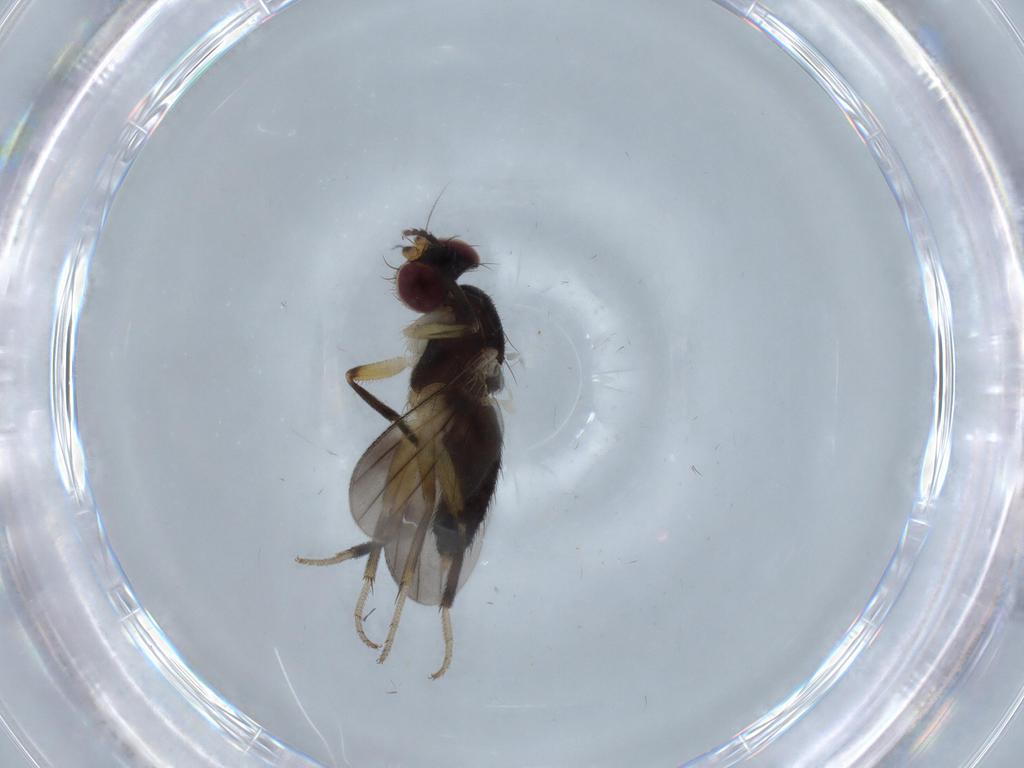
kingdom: Animalia
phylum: Arthropoda
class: Insecta
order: Diptera
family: Clusiidae
